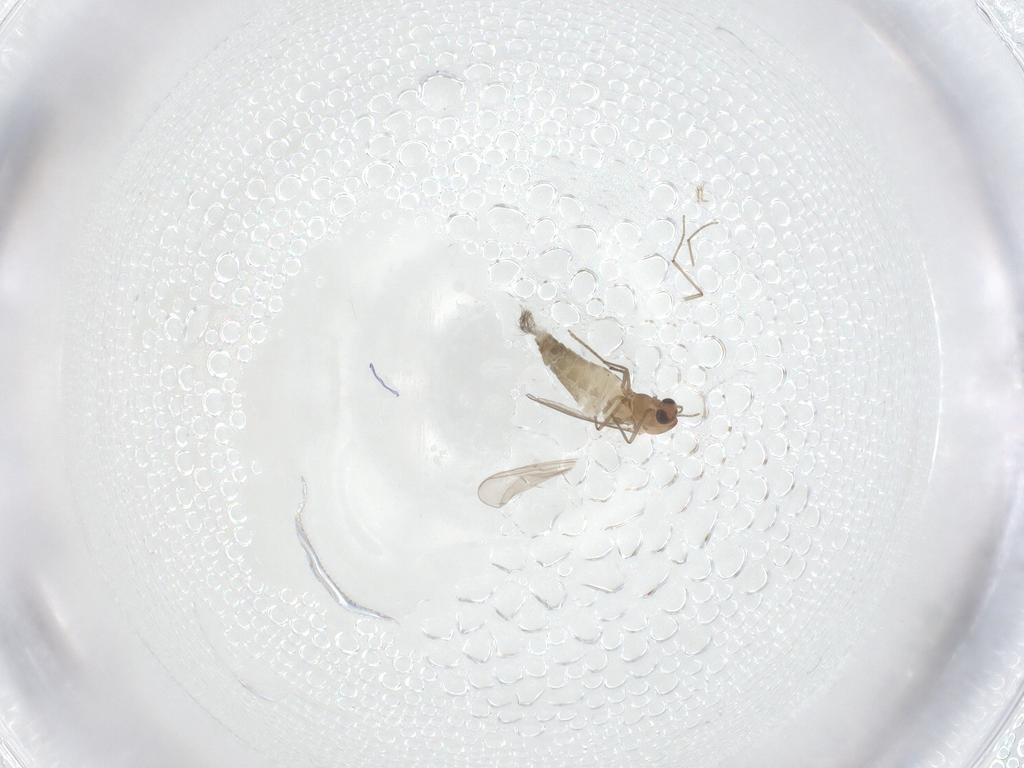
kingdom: Animalia
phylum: Arthropoda
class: Insecta
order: Diptera
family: Chironomidae
